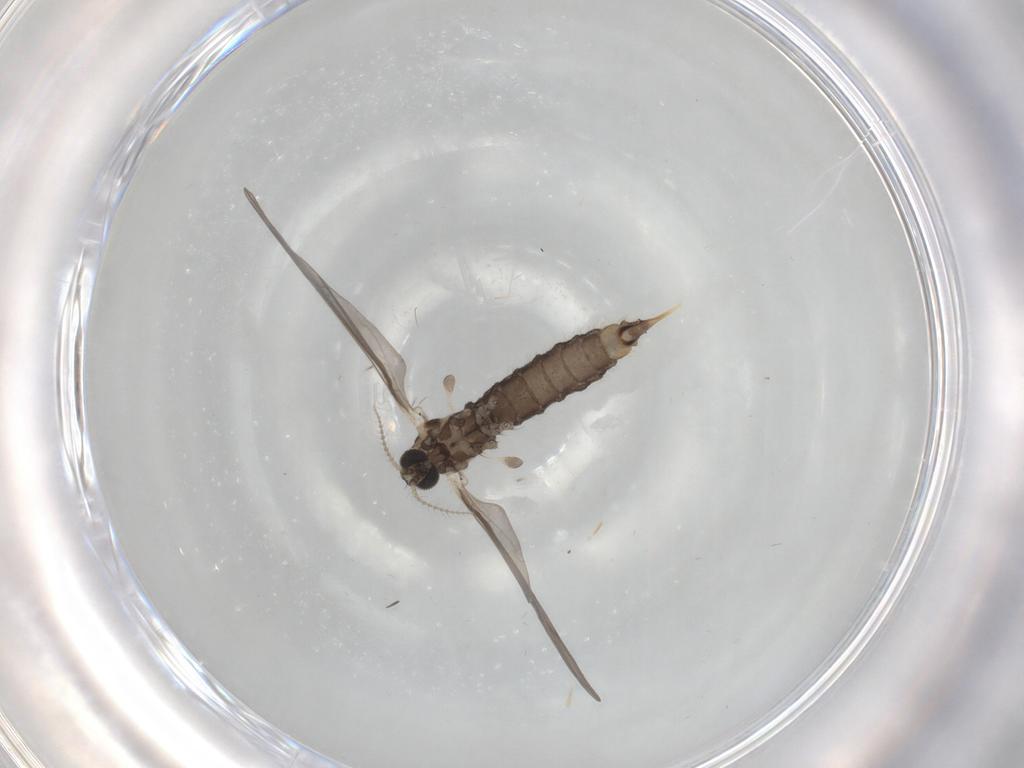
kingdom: Animalia
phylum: Arthropoda
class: Insecta
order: Diptera
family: Limoniidae
